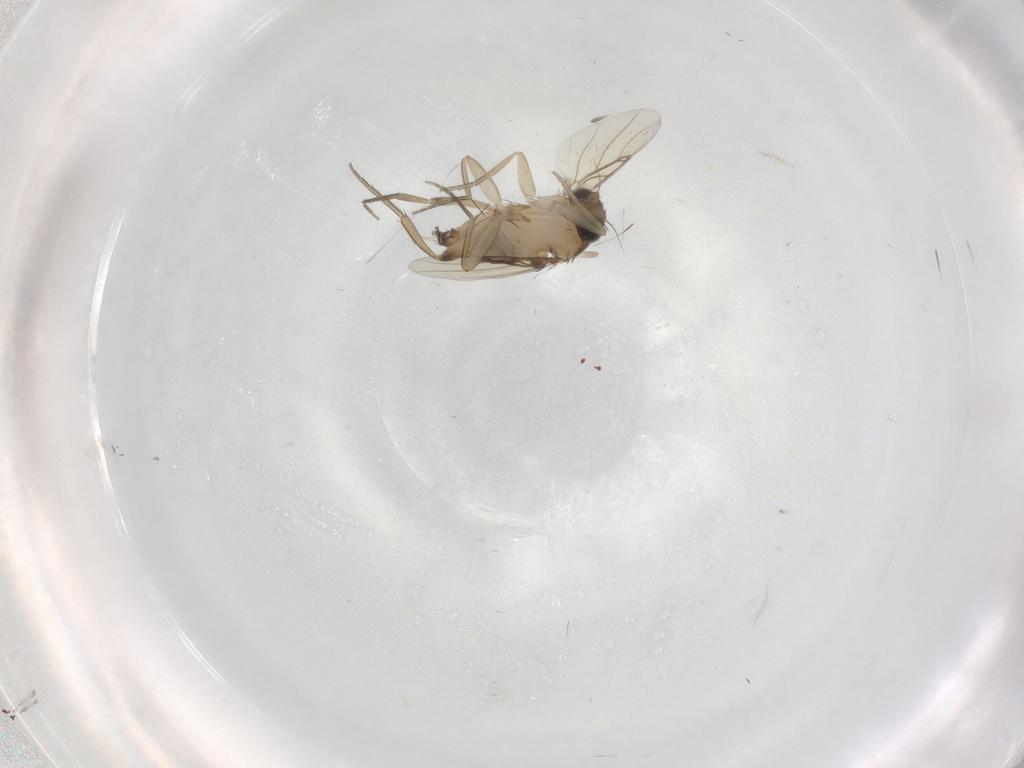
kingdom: Animalia
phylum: Arthropoda
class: Insecta
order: Diptera
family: Phoridae
